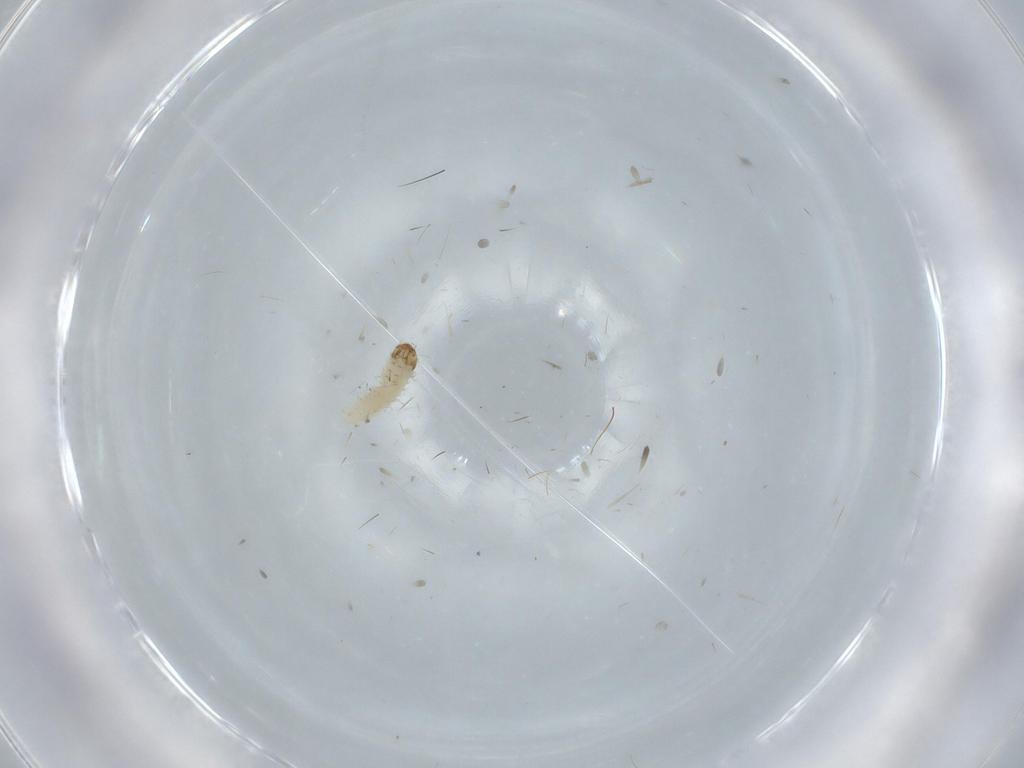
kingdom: Animalia
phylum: Arthropoda
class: Insecta
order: Lepidoptera
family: Tineidae
